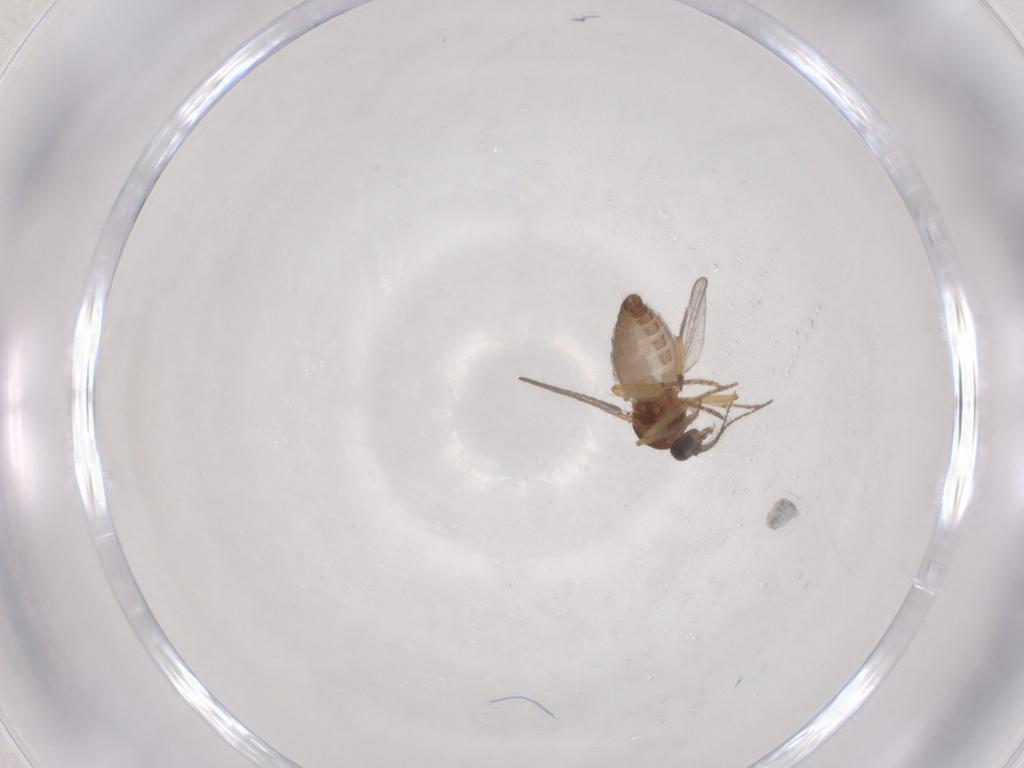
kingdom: Animalia
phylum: Arthropoda
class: Insecta
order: Diptera
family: Ceratopogonidae
